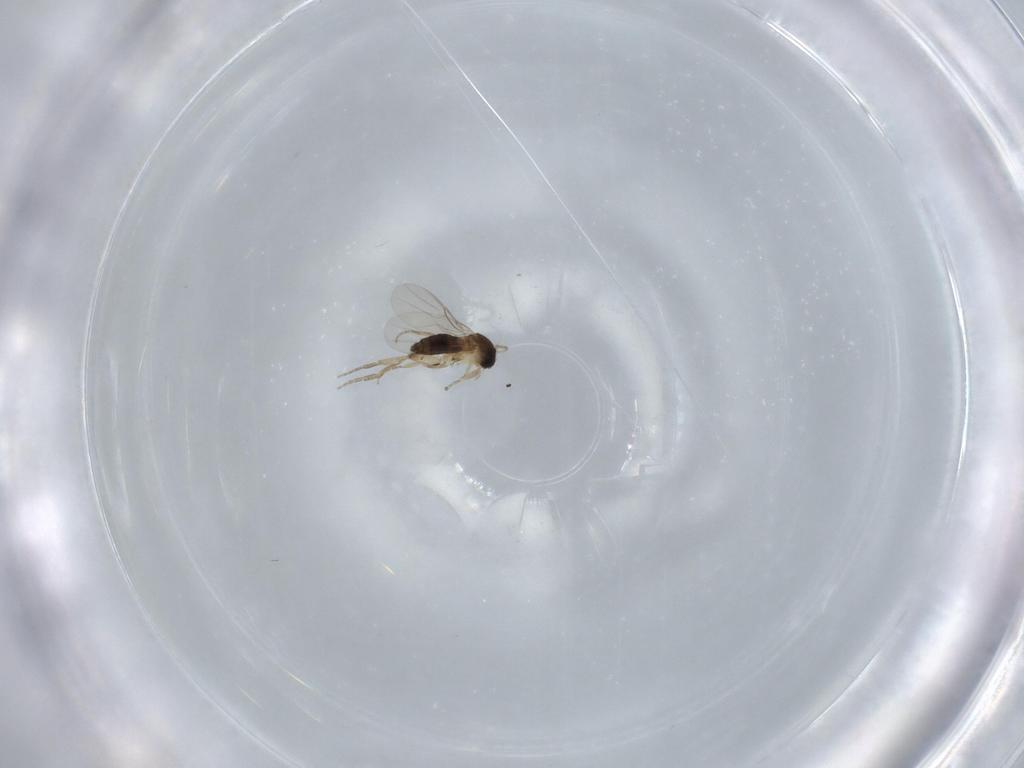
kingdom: Animalia
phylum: Arthropoda
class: Insecta
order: Diptera
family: Phoridae
